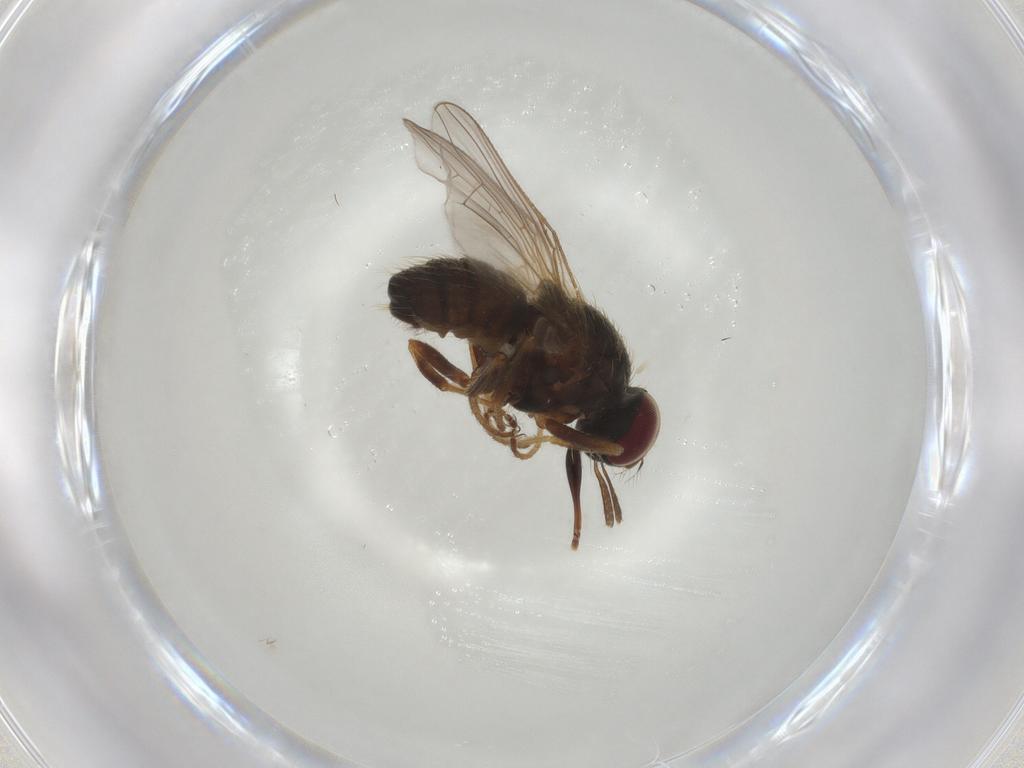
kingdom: Animalia
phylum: Arthropoda
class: Insecta
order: Diptera
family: Muscidae
